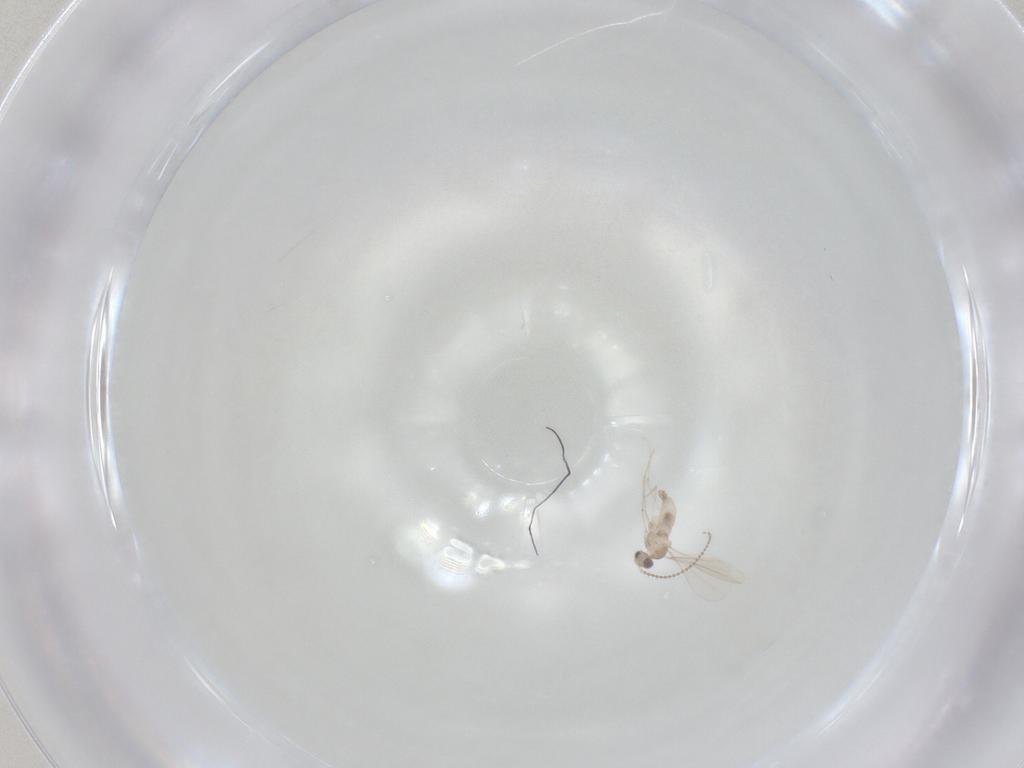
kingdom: Animalia
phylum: Arthropoda
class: Insecta
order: Diptera
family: Cecidomyiidae
